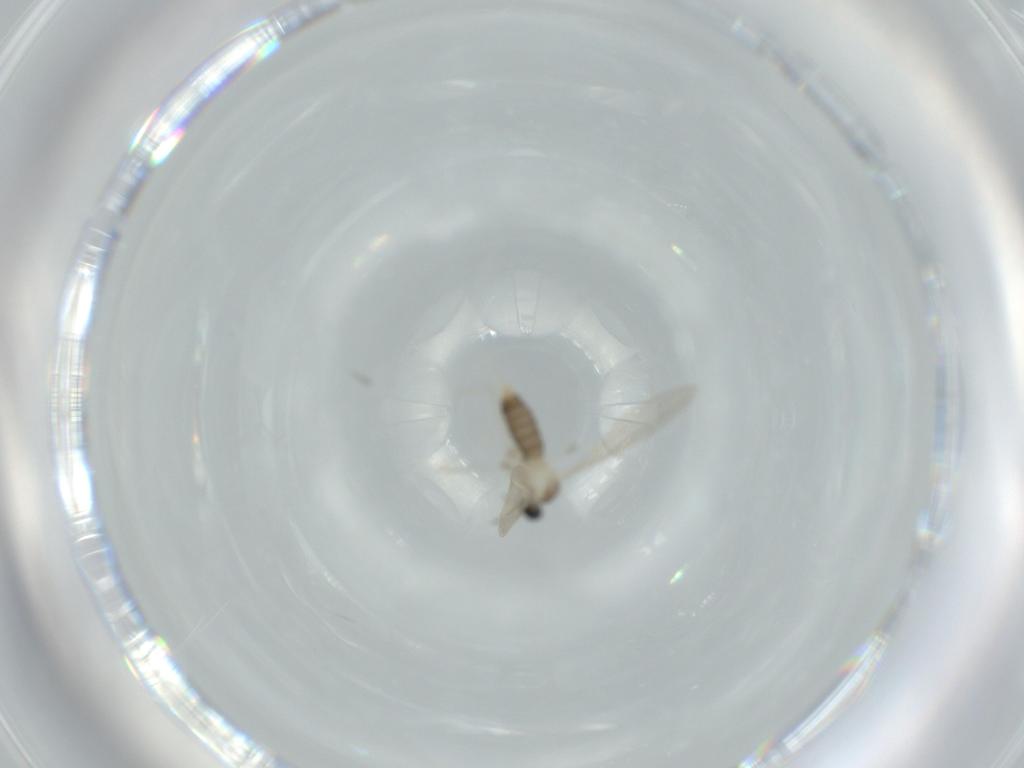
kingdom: Animalia
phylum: Arthropoda
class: Insecta
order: Diptera
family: Cecidomyiidae
